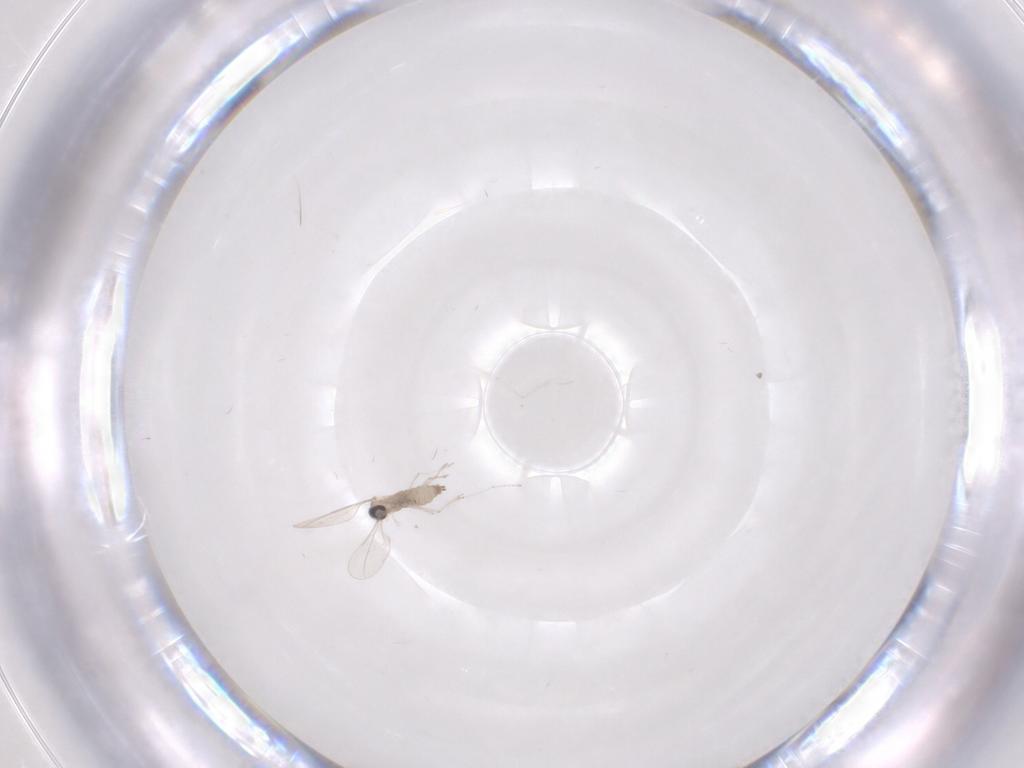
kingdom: Animalia
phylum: Arthropoda
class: Insecta
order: Diptera
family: Cecidomyiidae
